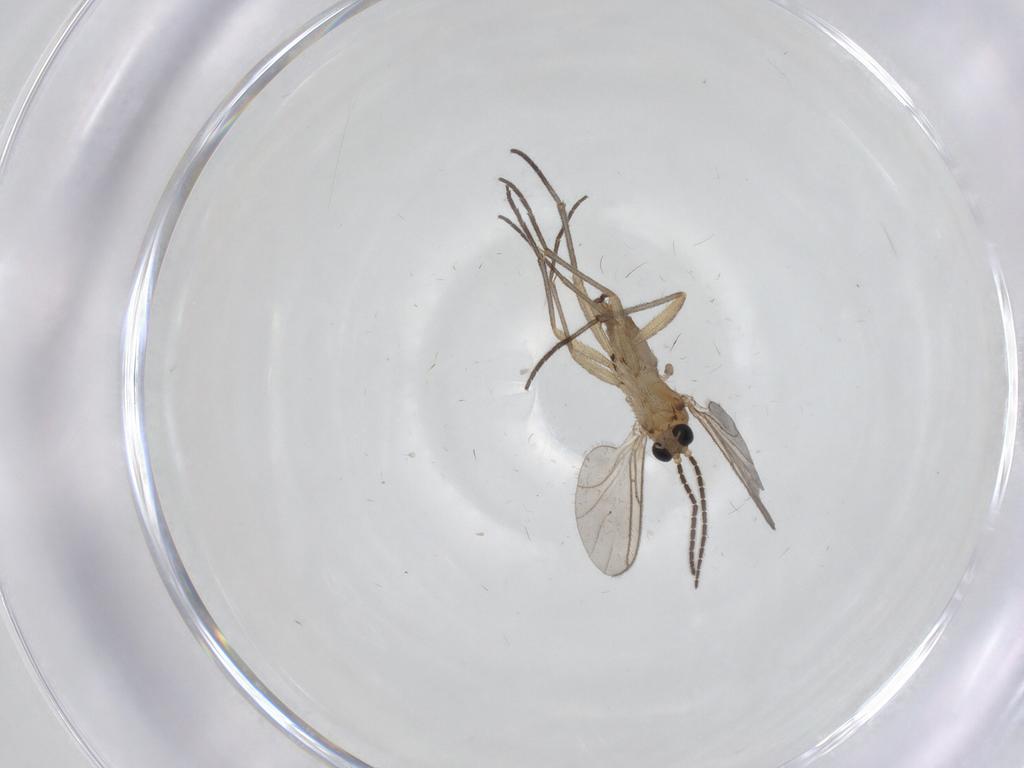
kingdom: Animalia
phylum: Arthropoda
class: Insecta
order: Diptera
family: Sciaridae
